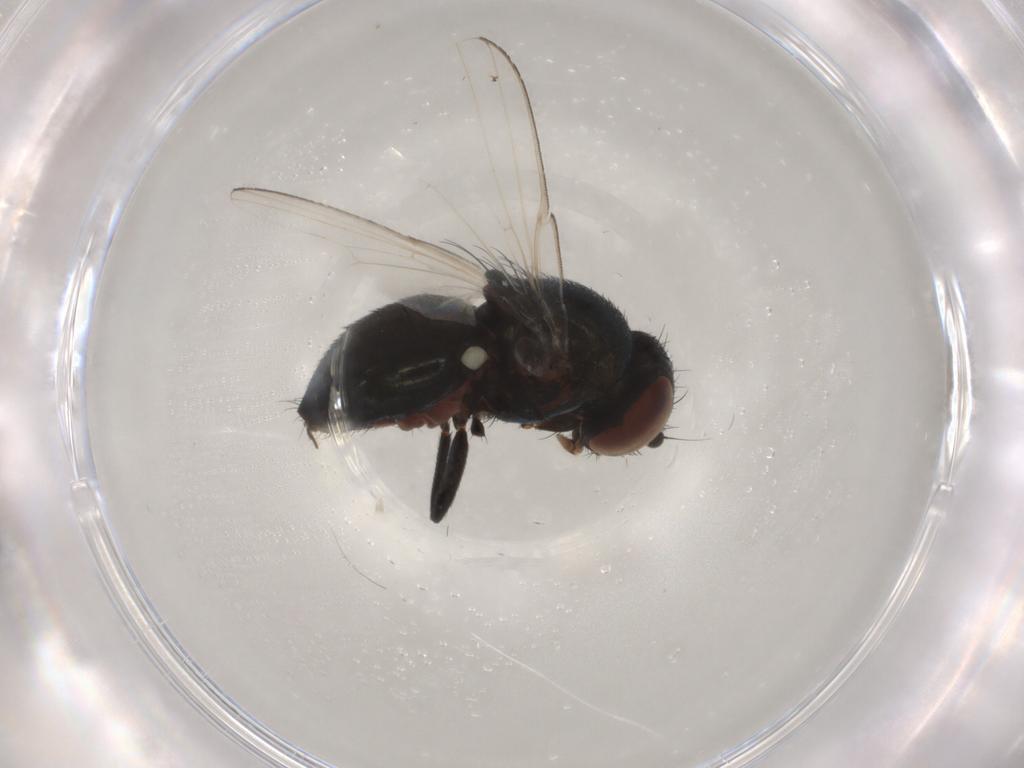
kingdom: Animalia
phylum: Arthropoda
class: Insecta
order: Diptera
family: Milichiidae
